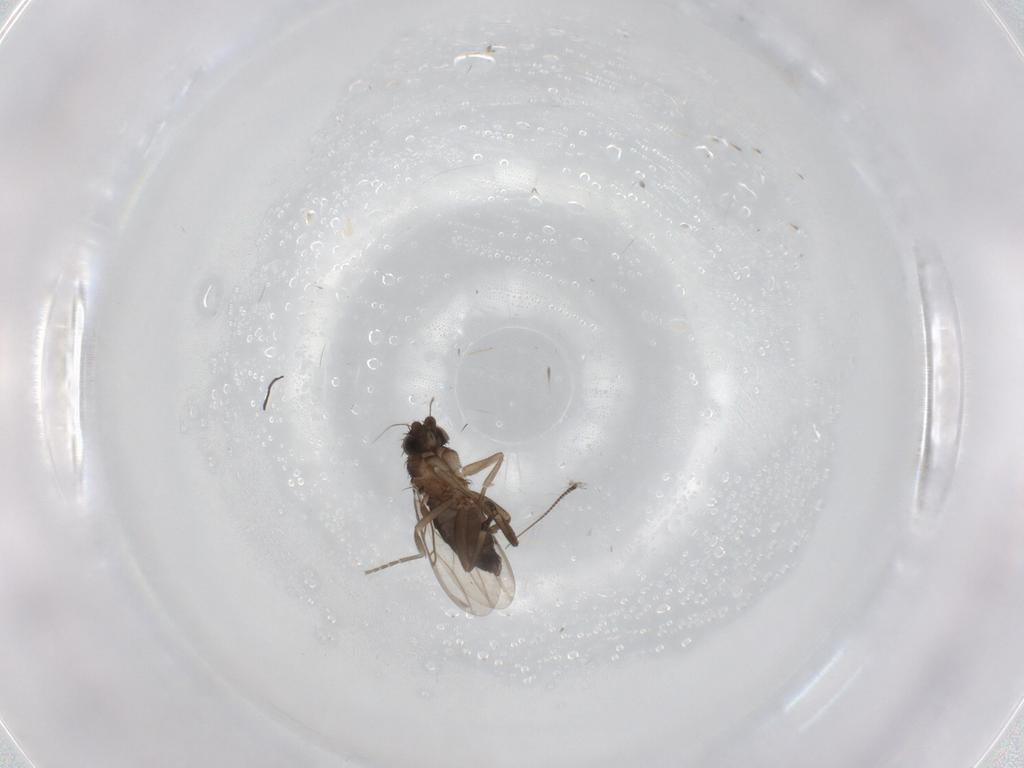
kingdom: Animalia
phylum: Arthropoda
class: Insecta
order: Diptera
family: Phoridae
